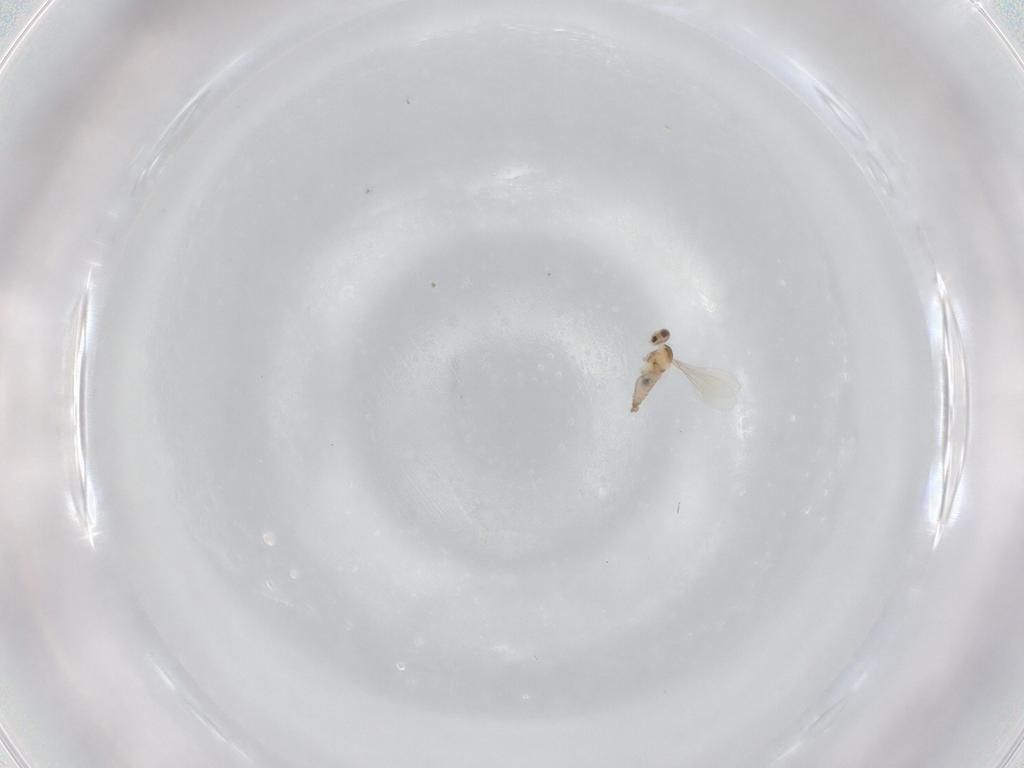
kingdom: Animalia
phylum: Arthropoda
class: Insecta
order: Diptera
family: Cecidomyiidae
